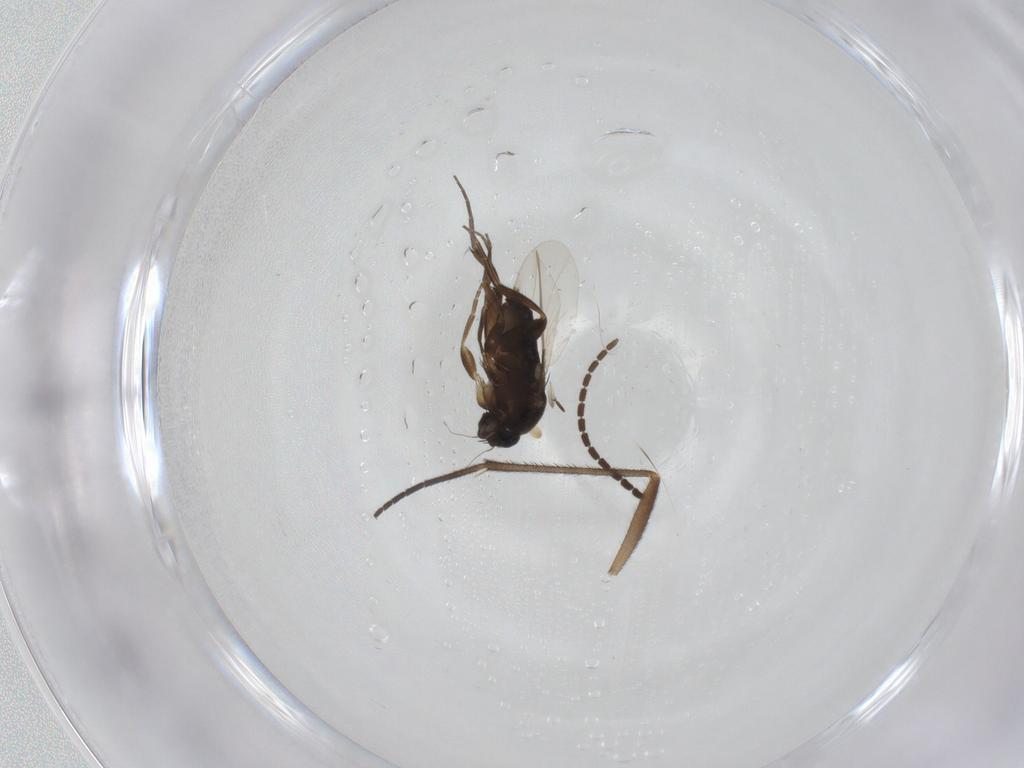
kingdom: Animalia
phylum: Arthropoda
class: Insecta
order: Diptera
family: Sciaridae
